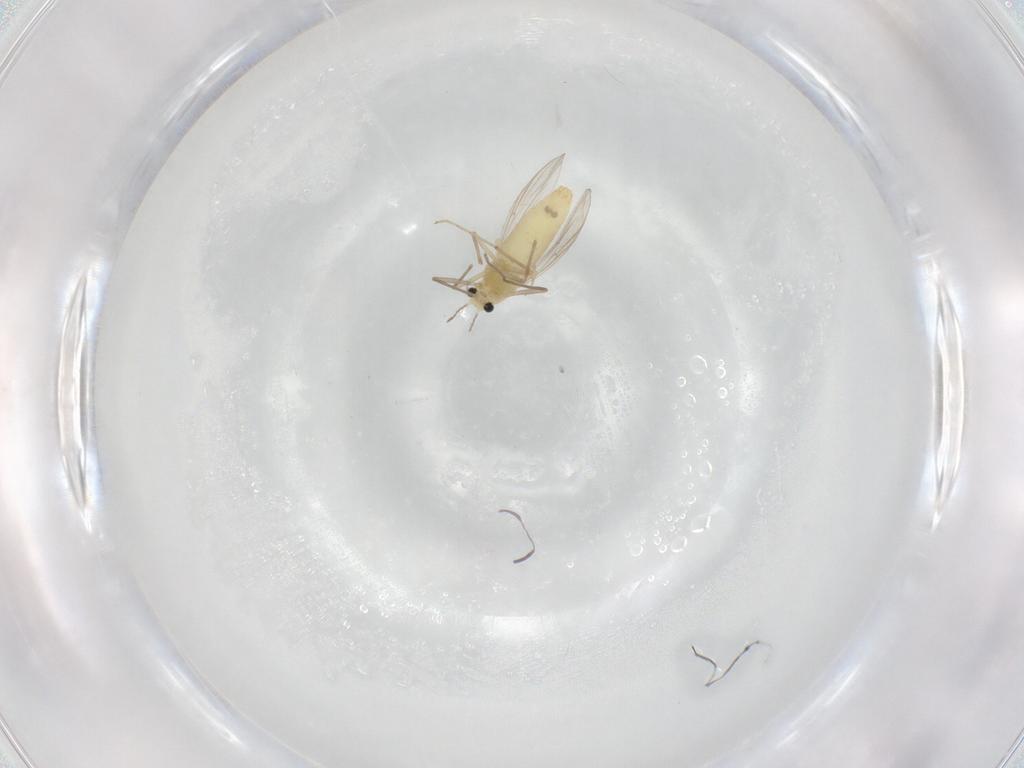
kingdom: Animalia
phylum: Arthropoda
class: Insecta
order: Diptera
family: Chironomidae
